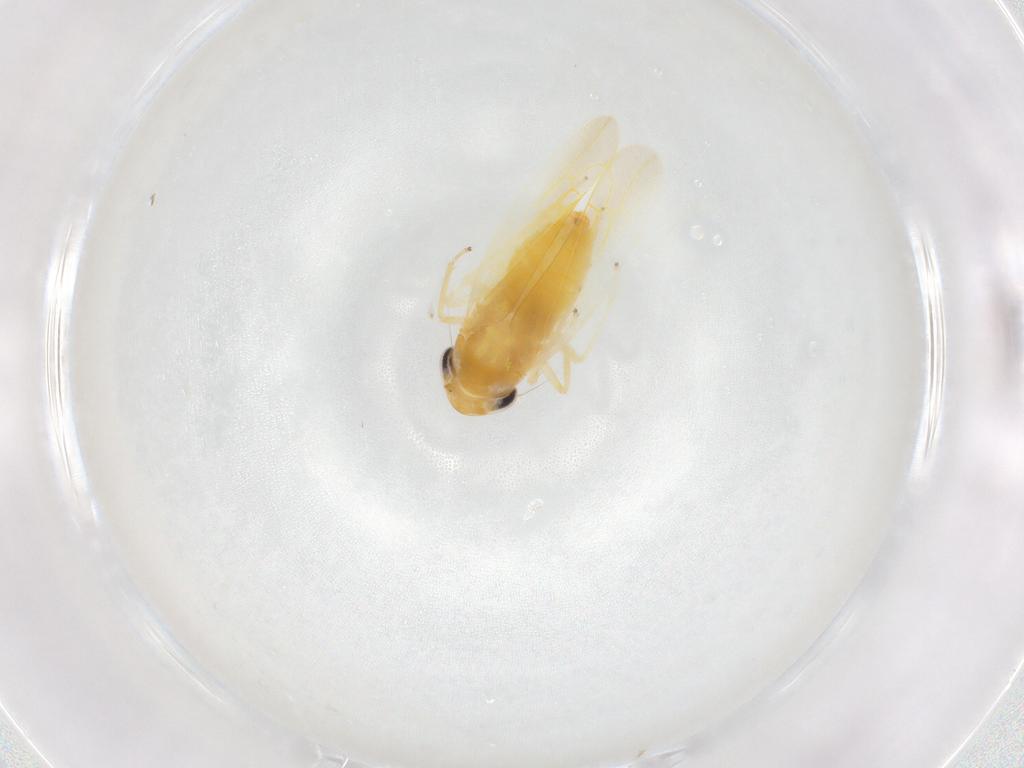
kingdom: Animalia
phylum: Arthropoda
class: Insecta
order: Hemiptera
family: Cicadellidae
